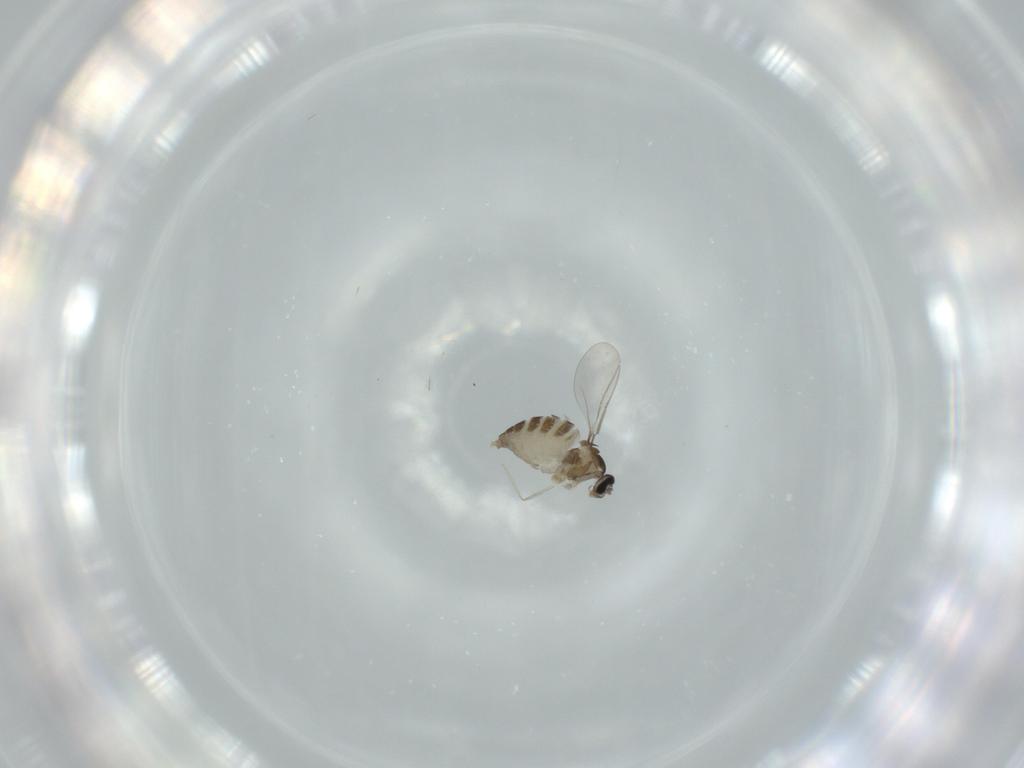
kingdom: Animalia
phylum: Arthropoda
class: Insecta
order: Diptera
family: Cecidomyiidae
